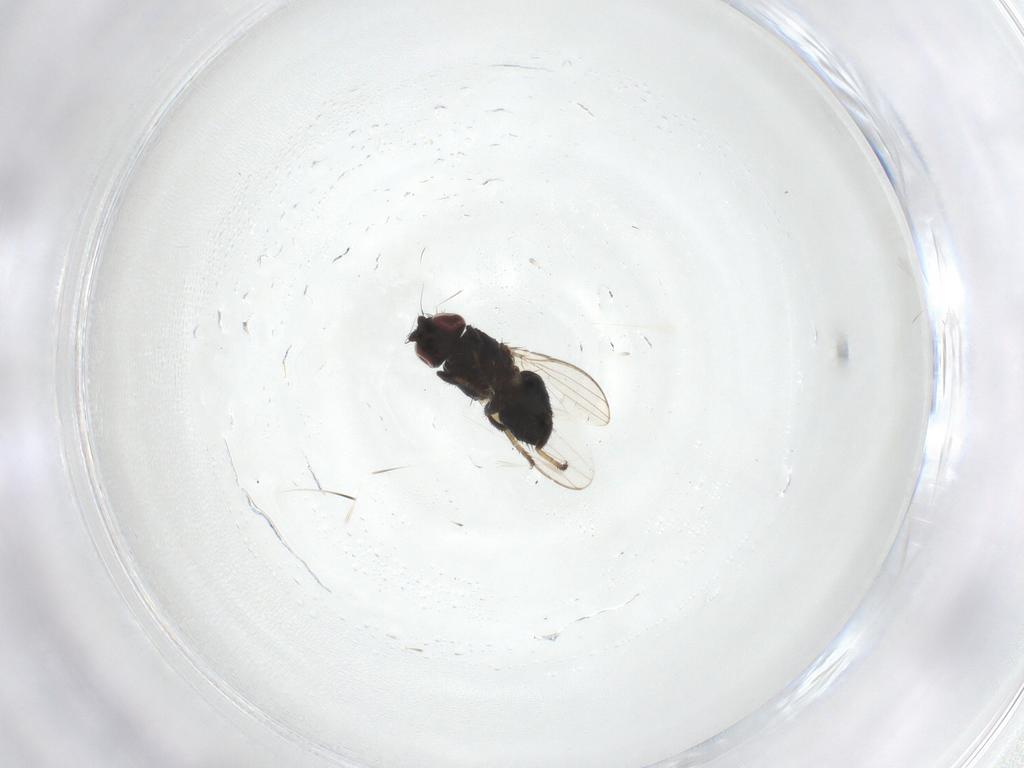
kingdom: Animalia
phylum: Arthropoda
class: Insecta
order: Diptera
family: Milichiidae
